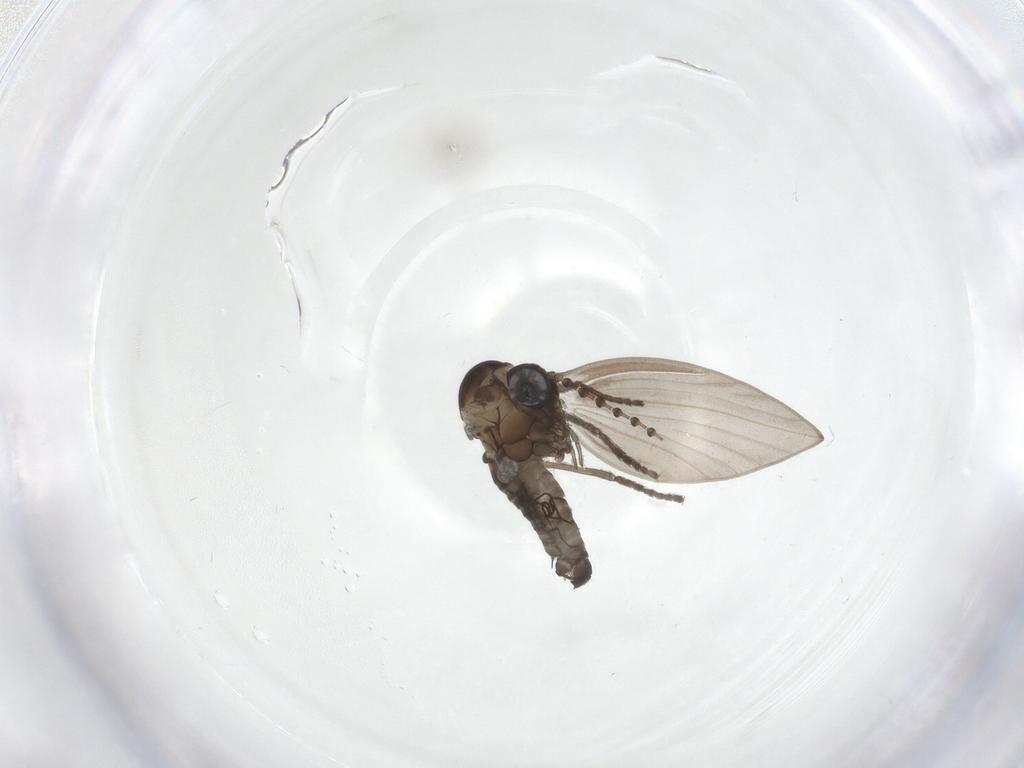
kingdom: Animalia
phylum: Arthropoda
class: Insecta
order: Diptera
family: Psychodidae
